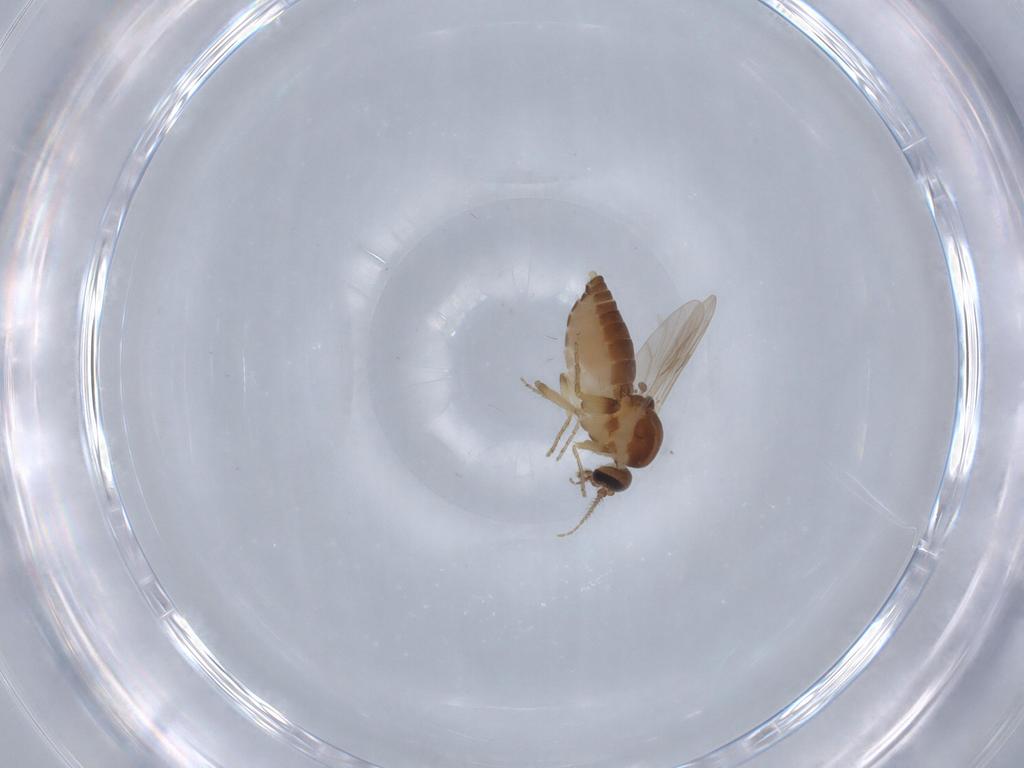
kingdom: Animalia
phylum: Arthropoda
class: Insecta
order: Diptera
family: Ceratopogonidae
